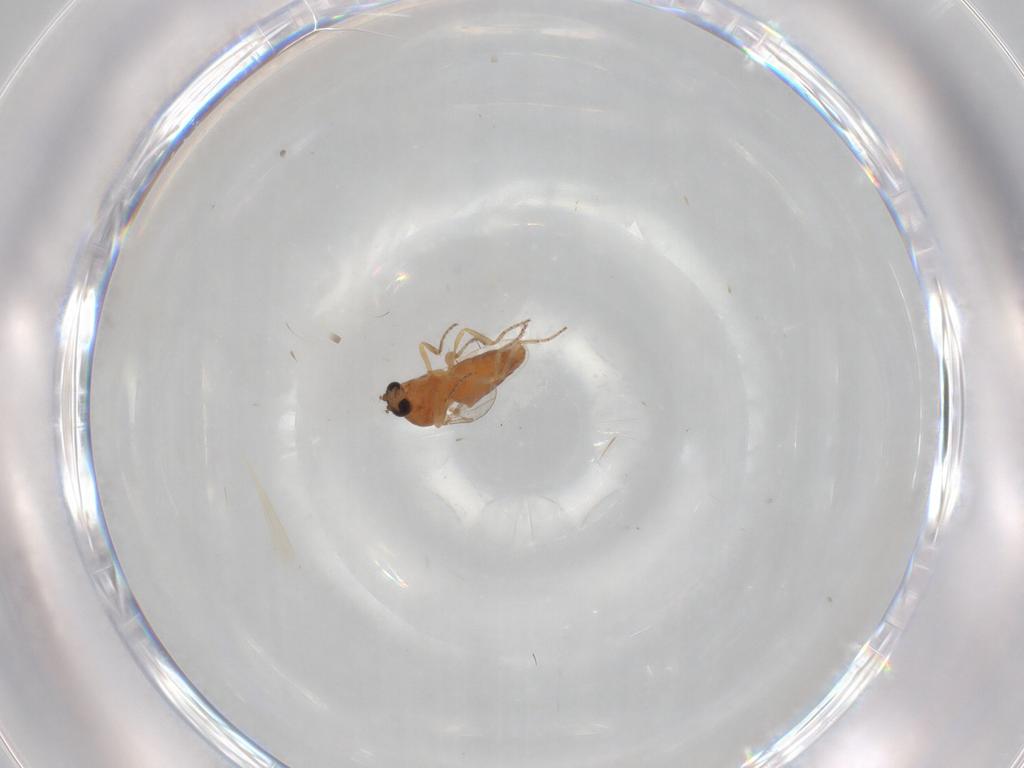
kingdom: Animalia
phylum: Arthropoda
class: Insecta
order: Diptera
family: Ceratopogonidae
